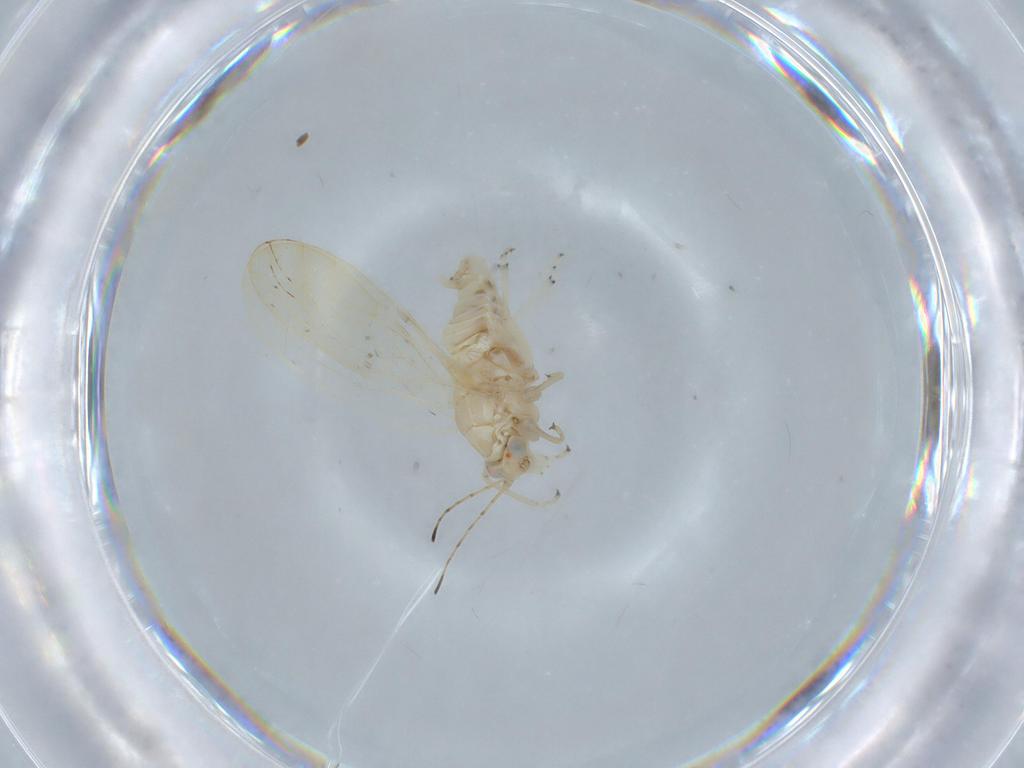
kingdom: Animalia
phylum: Arthropoda
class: Insecta
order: Hemiptera
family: Psyllidae
